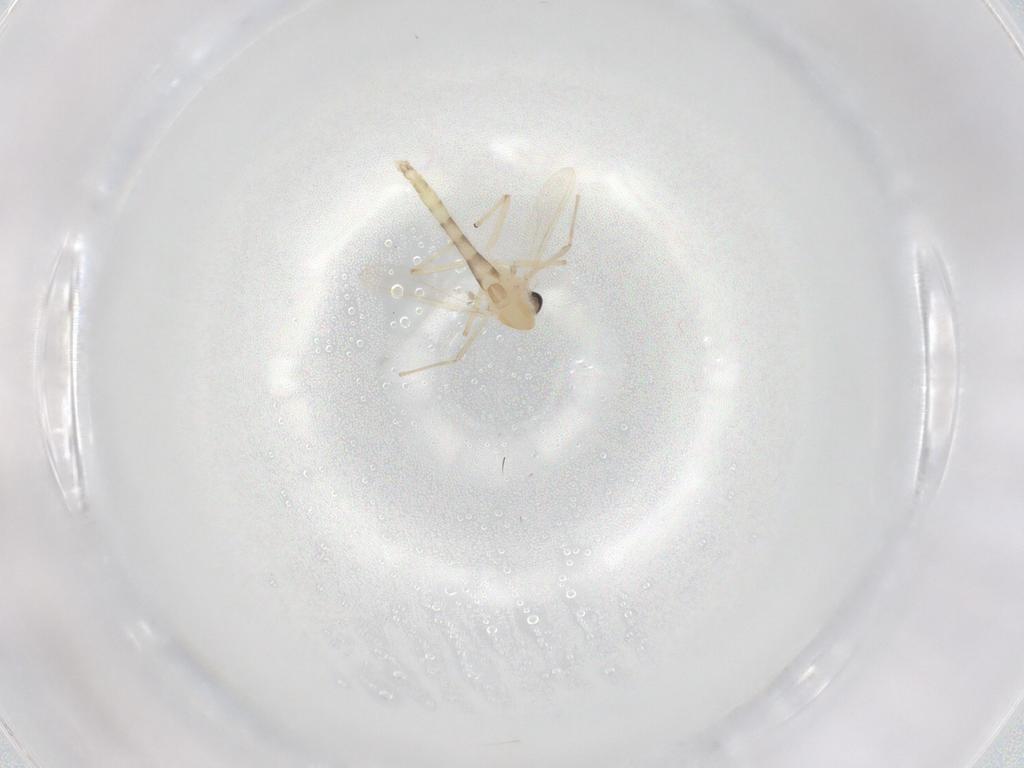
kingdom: Animalia
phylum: Arthropoda
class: Insecta
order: Diptera
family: Chironomidae
